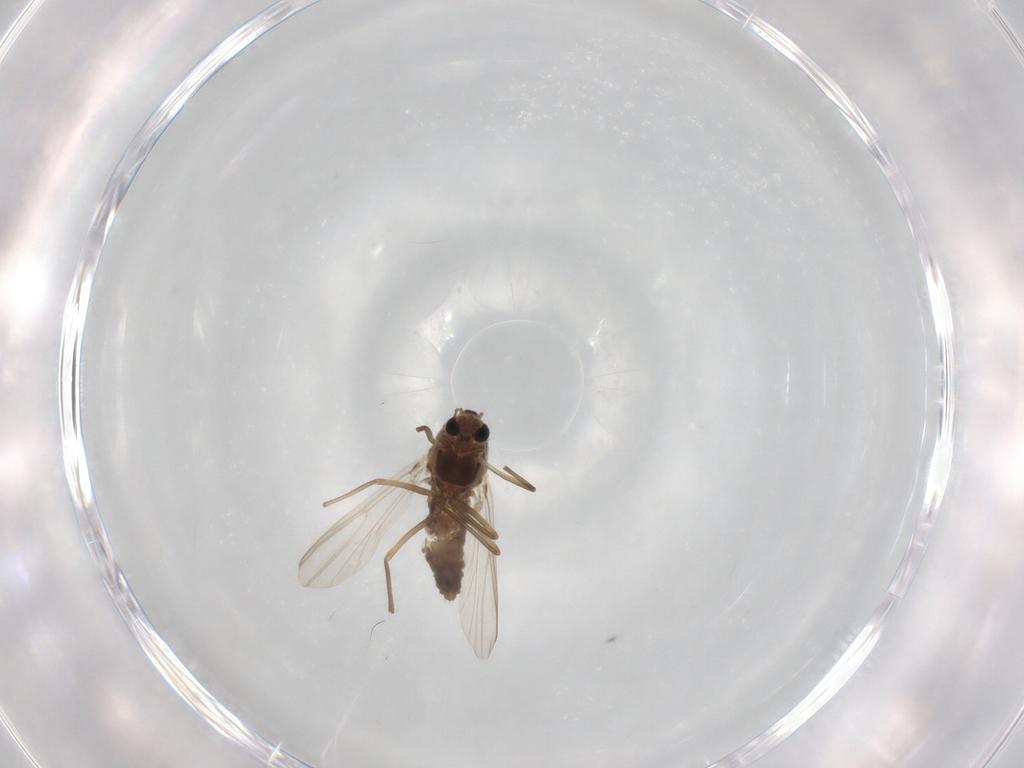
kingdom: Animalia
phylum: Arthropoda
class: Insecta
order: Diptera
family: Chironomidae
